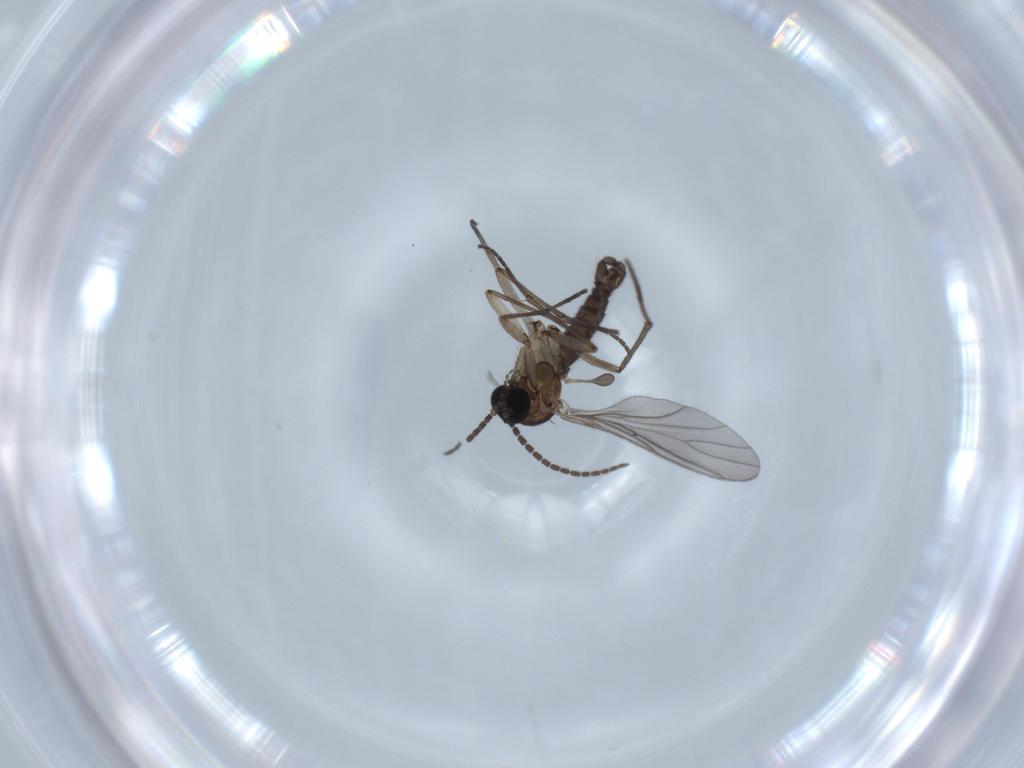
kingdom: Animalia
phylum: Arthropoda
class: Insecta
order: Diptera
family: Sciaridae
